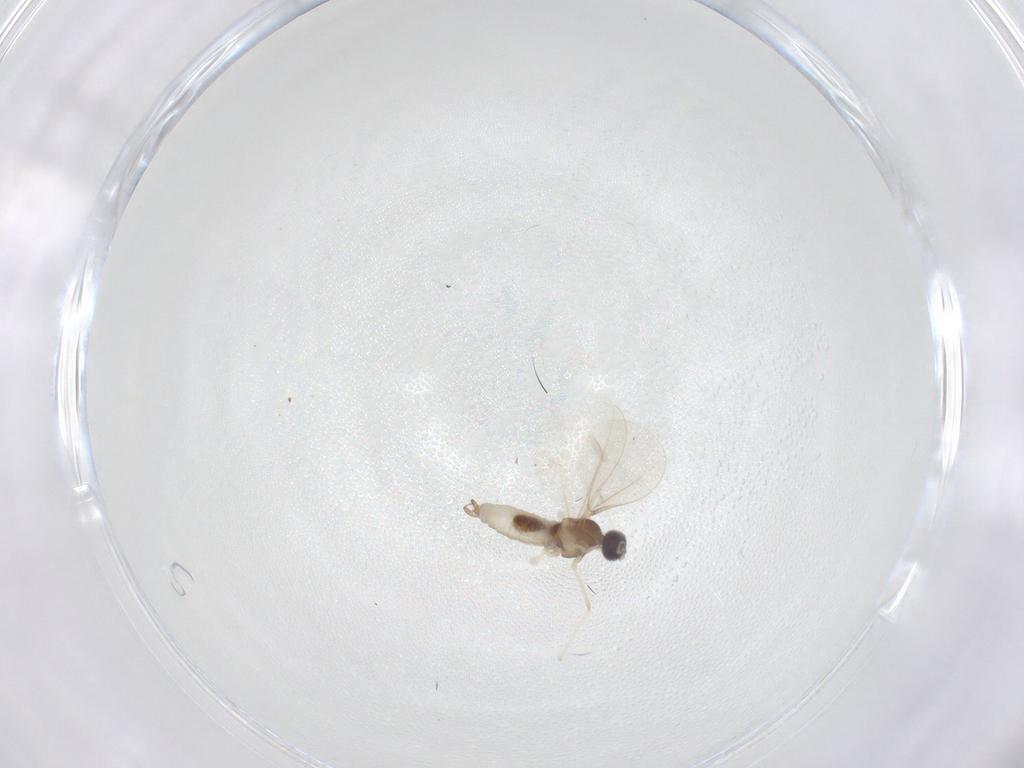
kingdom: Animalia
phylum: Arthropoda
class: Insecta
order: Diptera
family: Cecidomyiidae
